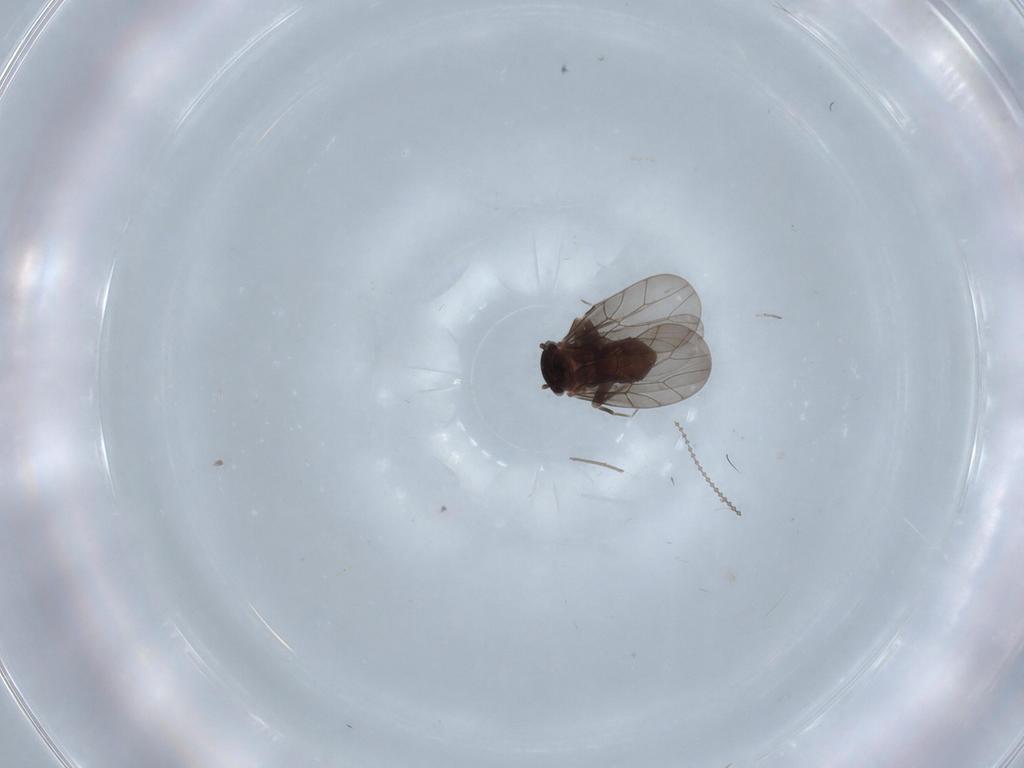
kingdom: Animalia
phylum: Arthropoda
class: Insecta
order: Psocodea
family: Lepidopsocidae
